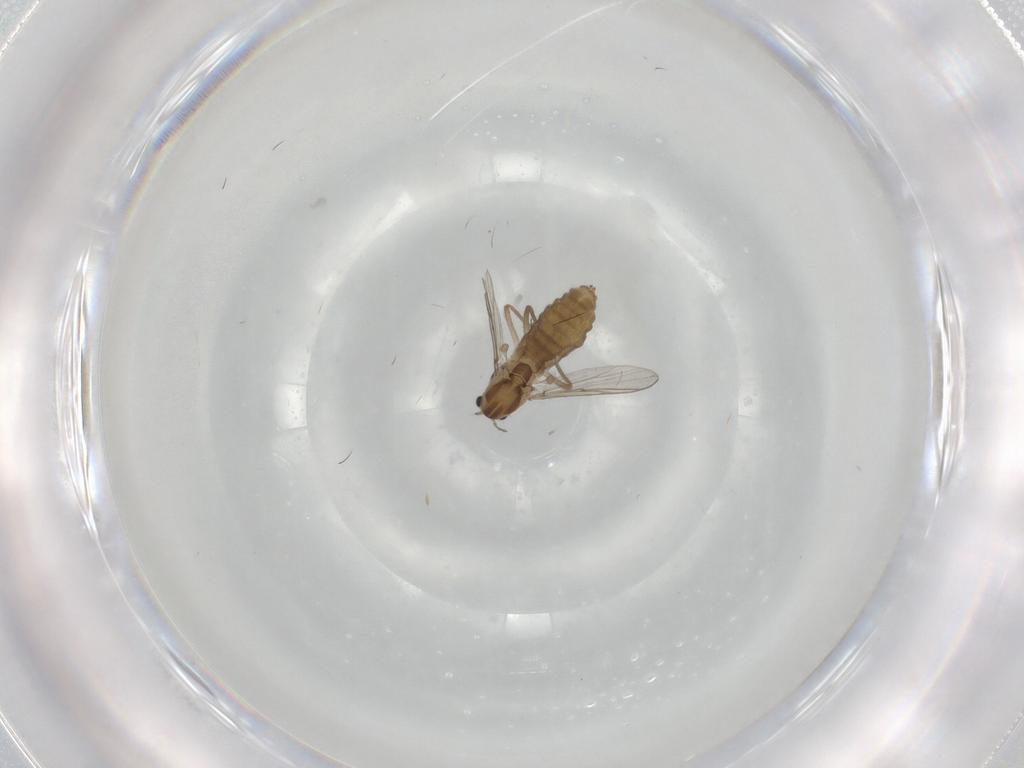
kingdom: Animalia
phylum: Arthropoda
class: Insecta
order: Diptera
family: Chironomidae
